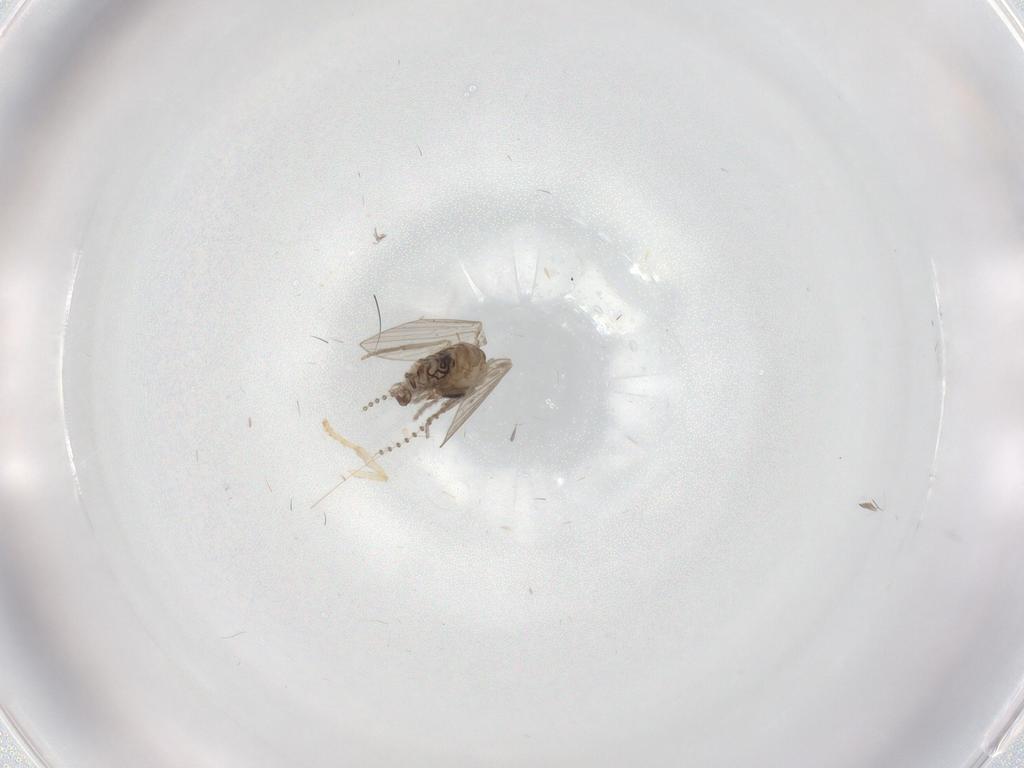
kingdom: Animalia
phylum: Arthropoda
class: Insecta
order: Diptera
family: Sciaridae
